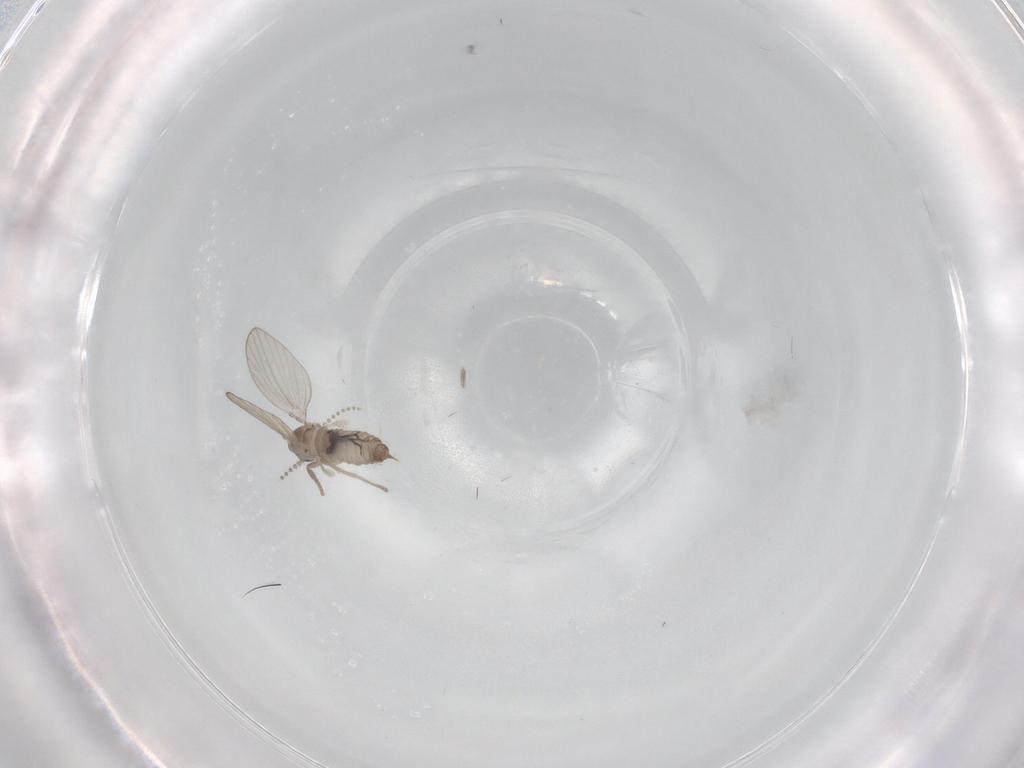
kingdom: Animalia
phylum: Arthropoda
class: Insecta
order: Diptera
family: Psychodidae
